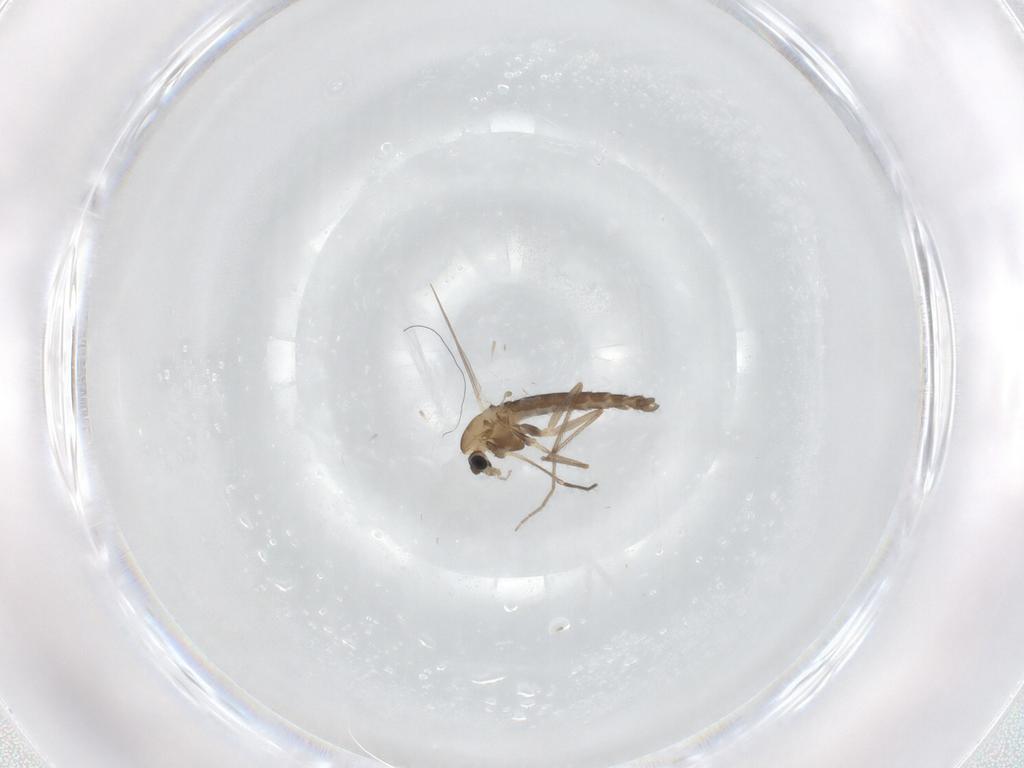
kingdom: Animalia
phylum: Arthropoda
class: Insecta
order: Diptera
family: Chironomidae
